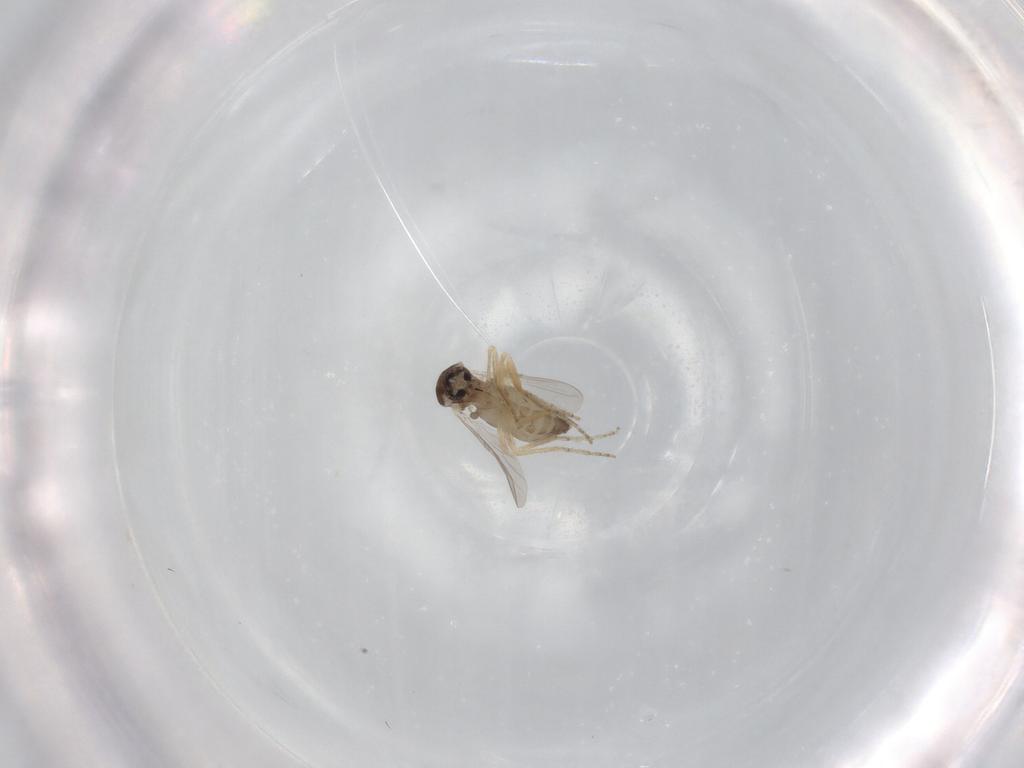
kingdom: Animalia
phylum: Arthropoda
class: Insecta
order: Diptera
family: Ceratopogonidae
